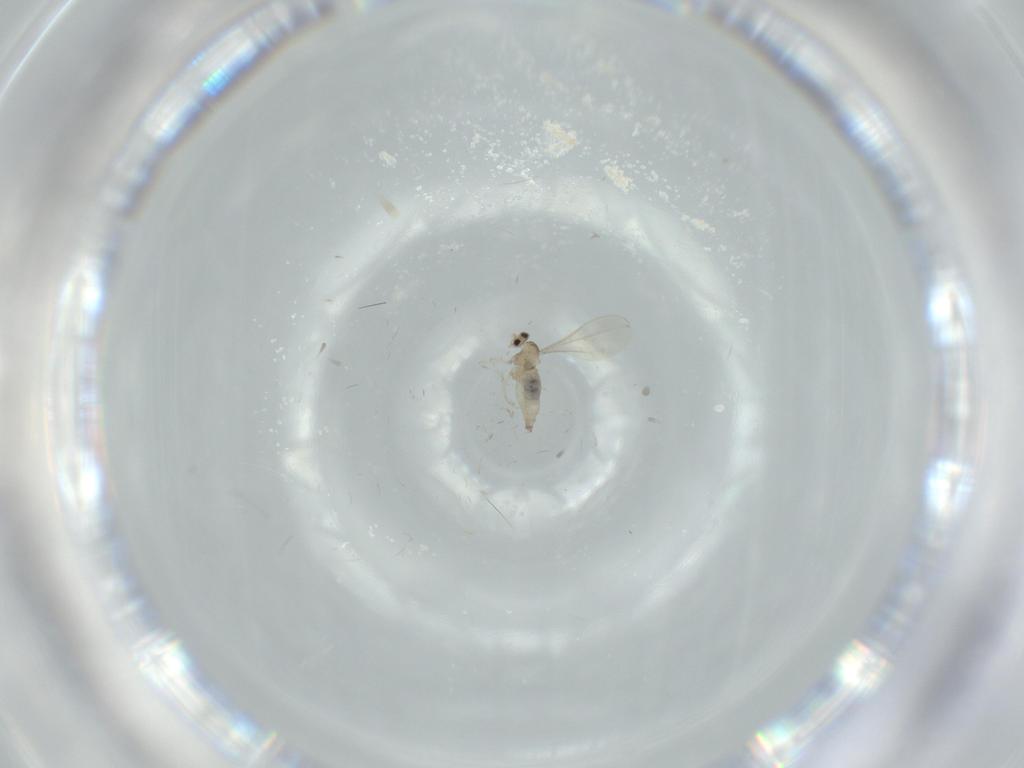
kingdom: Animalia
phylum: Arthropoda
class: Insecta
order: Diptera
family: Cecidomyiidae
